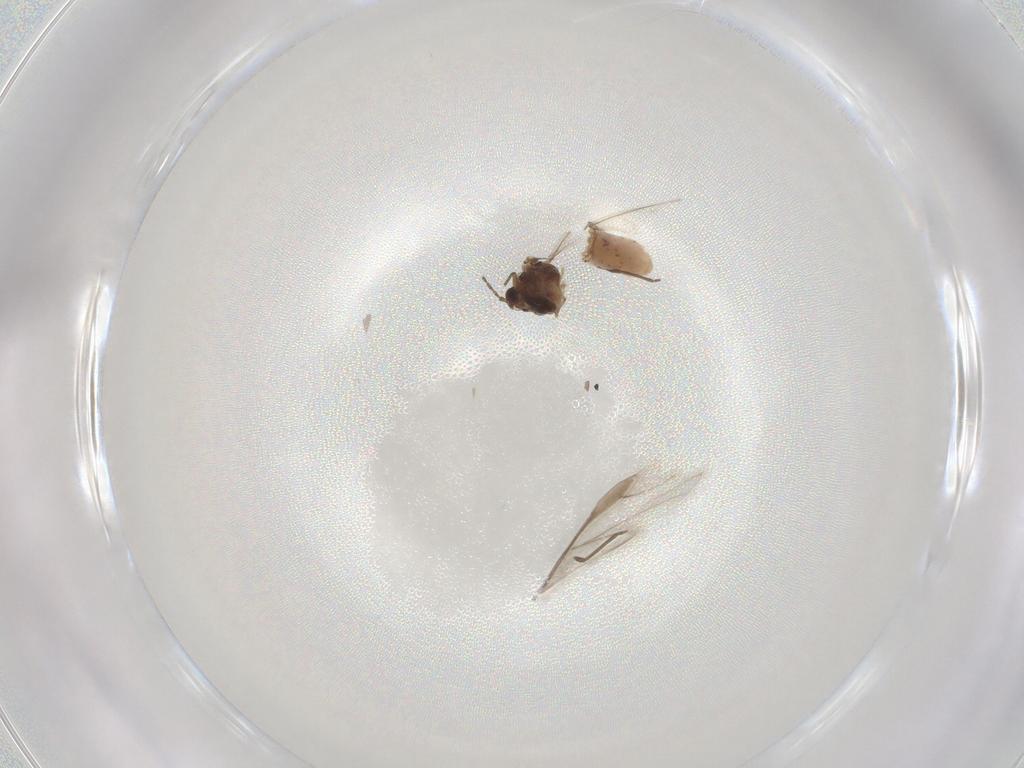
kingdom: Animalia
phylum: Arthropoda
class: Insecta
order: Hemiptera
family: Aphididae
